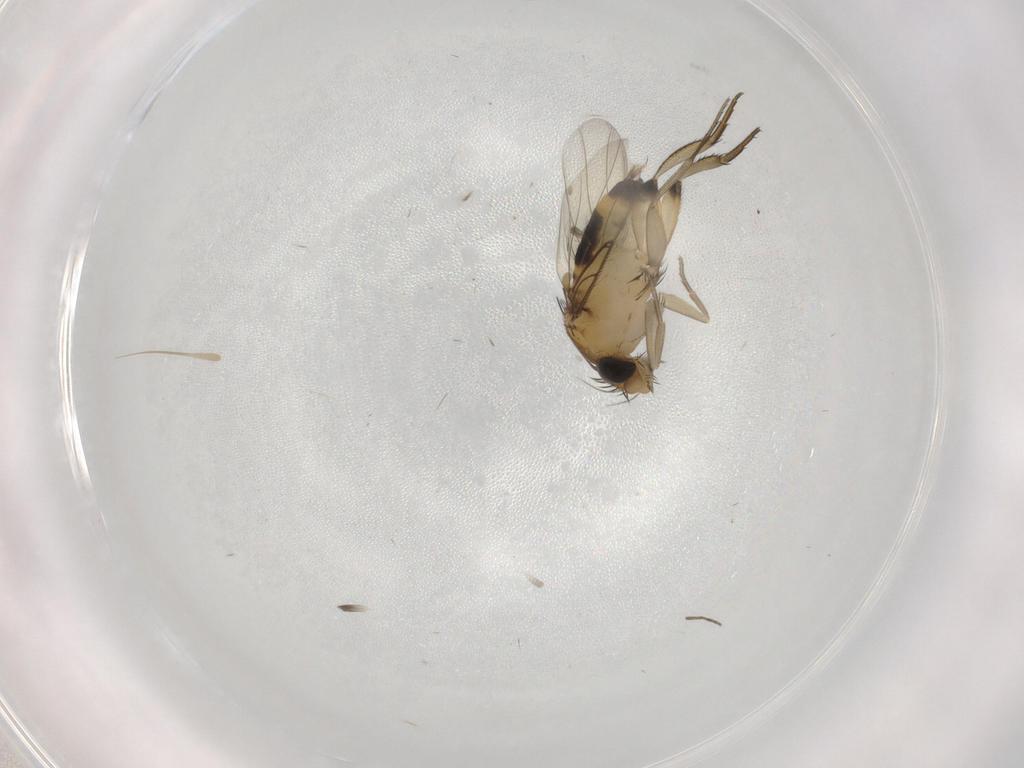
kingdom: Animalia
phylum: Arthropoda
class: Insecta
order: Diptera
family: Phoridae
